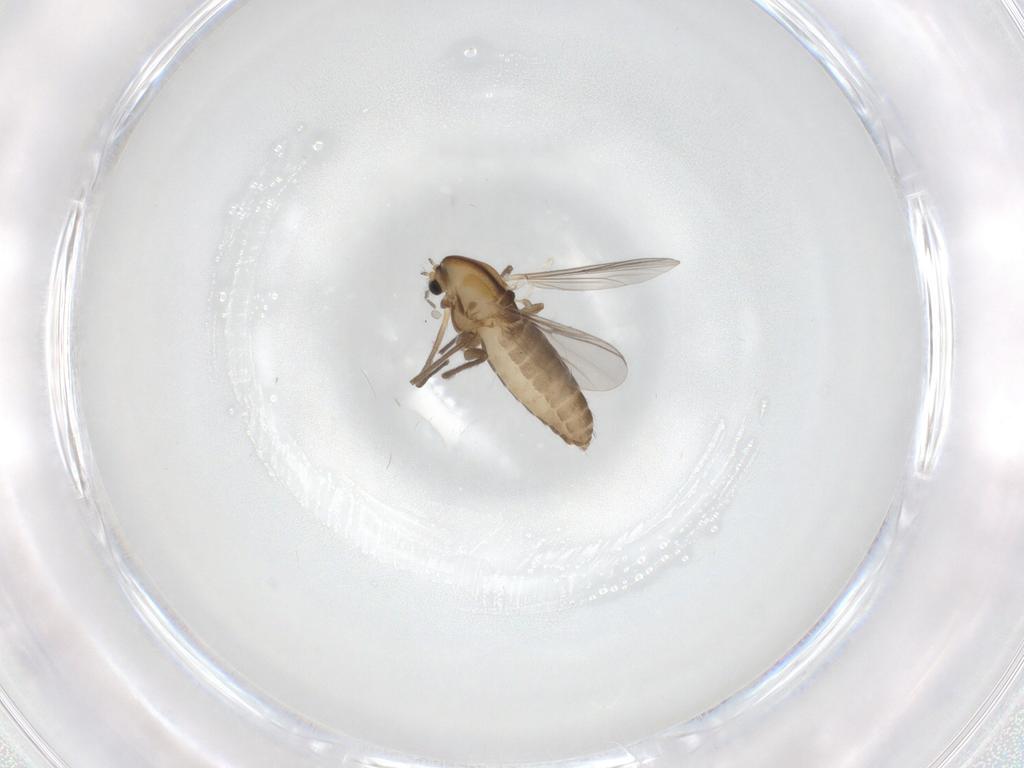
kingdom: Animalia
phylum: Arthropoda
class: Insecta
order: Diptera
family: Chironomidae
